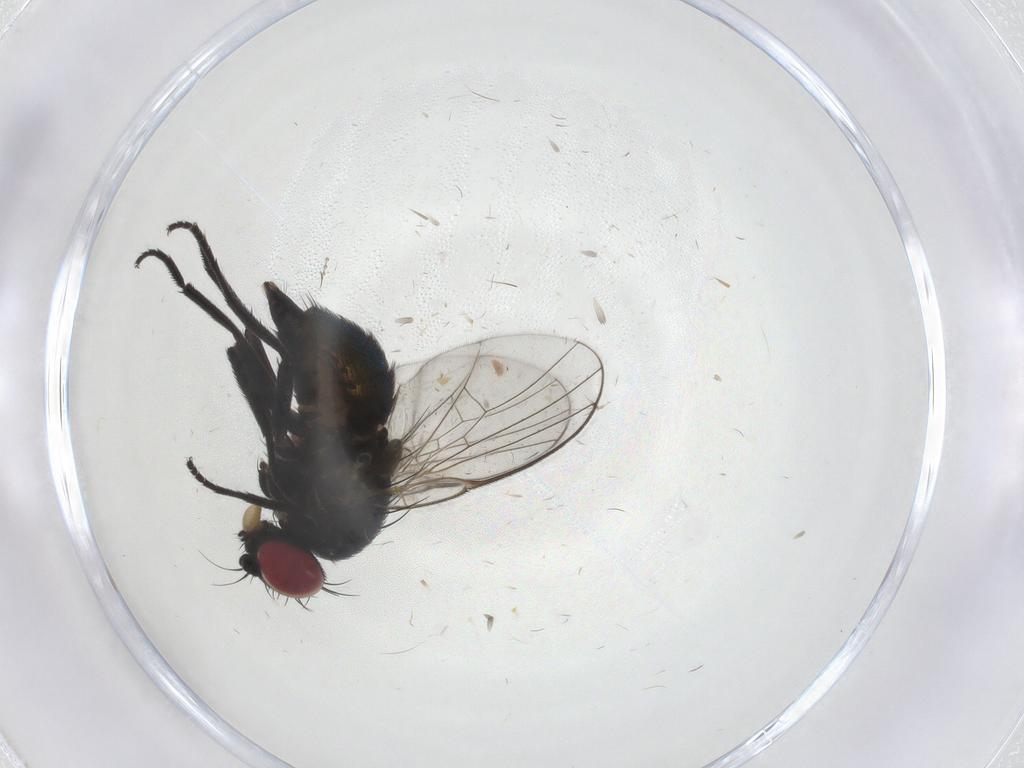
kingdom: Animalia
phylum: Arthropoda
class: Insecta
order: Diptera
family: Agromyzidae
